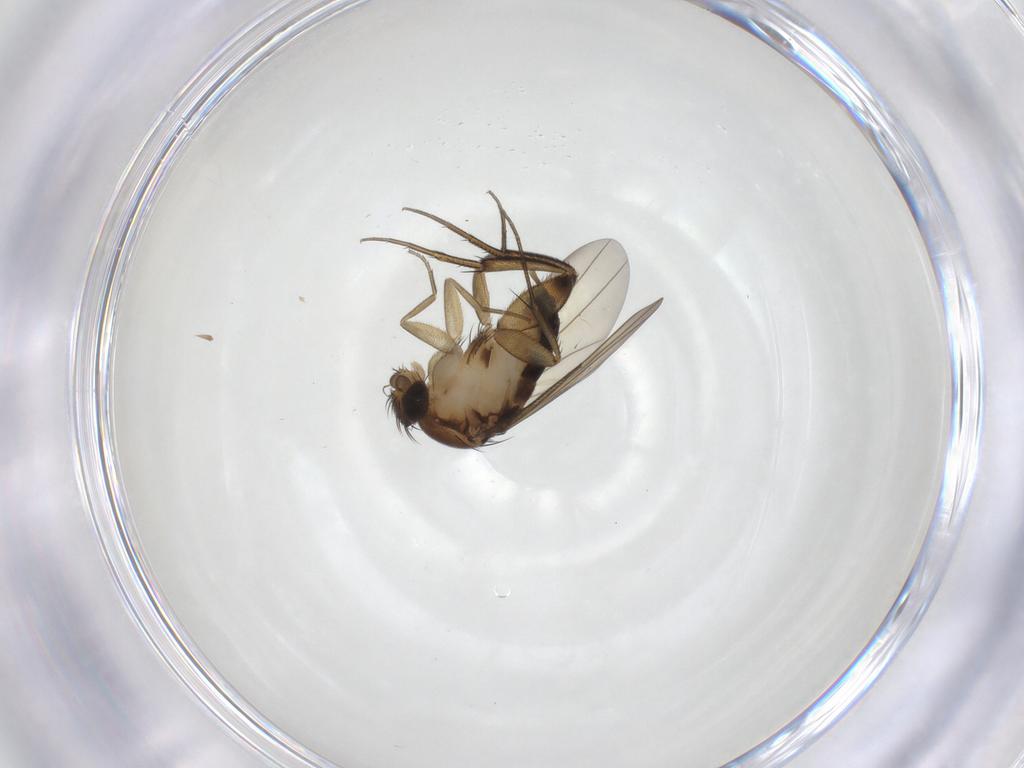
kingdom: Animalia
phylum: Arthropoda
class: Insecta
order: Diptera
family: Phoridae
